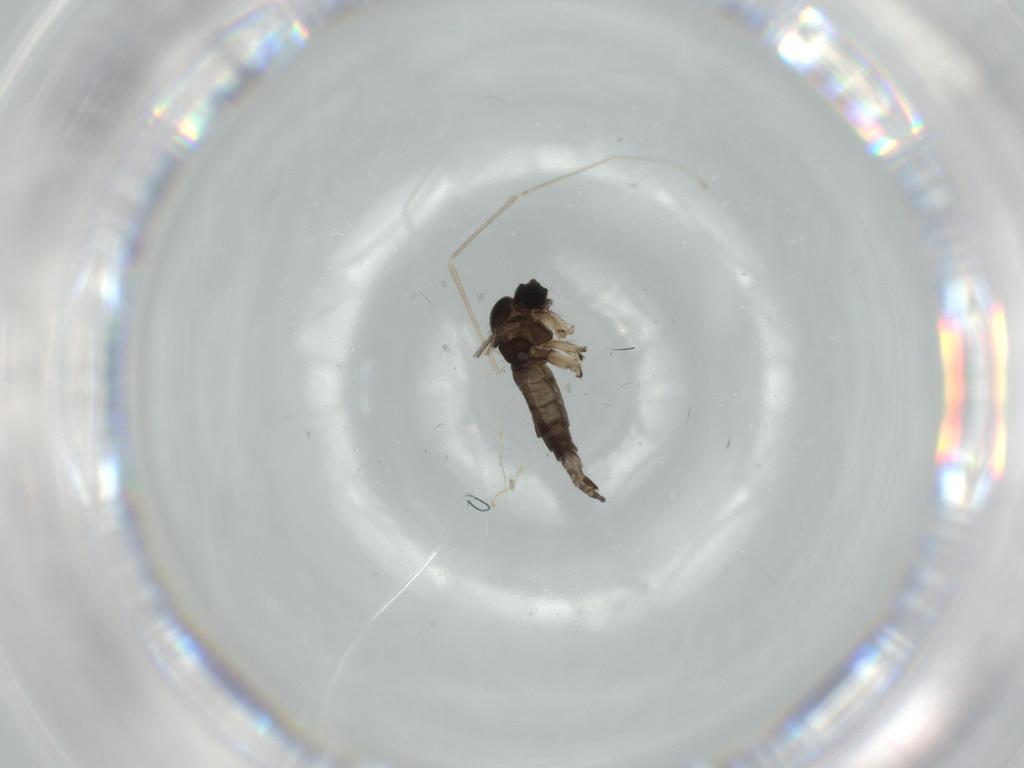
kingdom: Animalia
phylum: Arthropoda
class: Insecta
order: Diptera
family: Sciaridae
